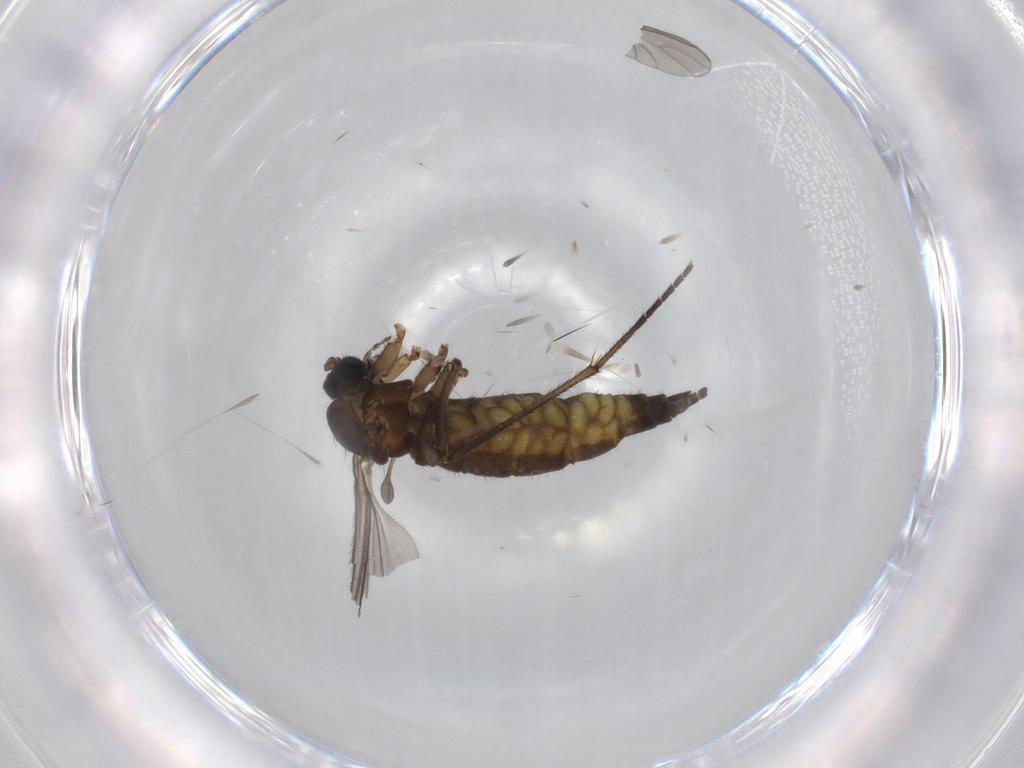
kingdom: Animalia
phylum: Arthropoda
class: Insecta
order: Diptera
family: Sciaridae
